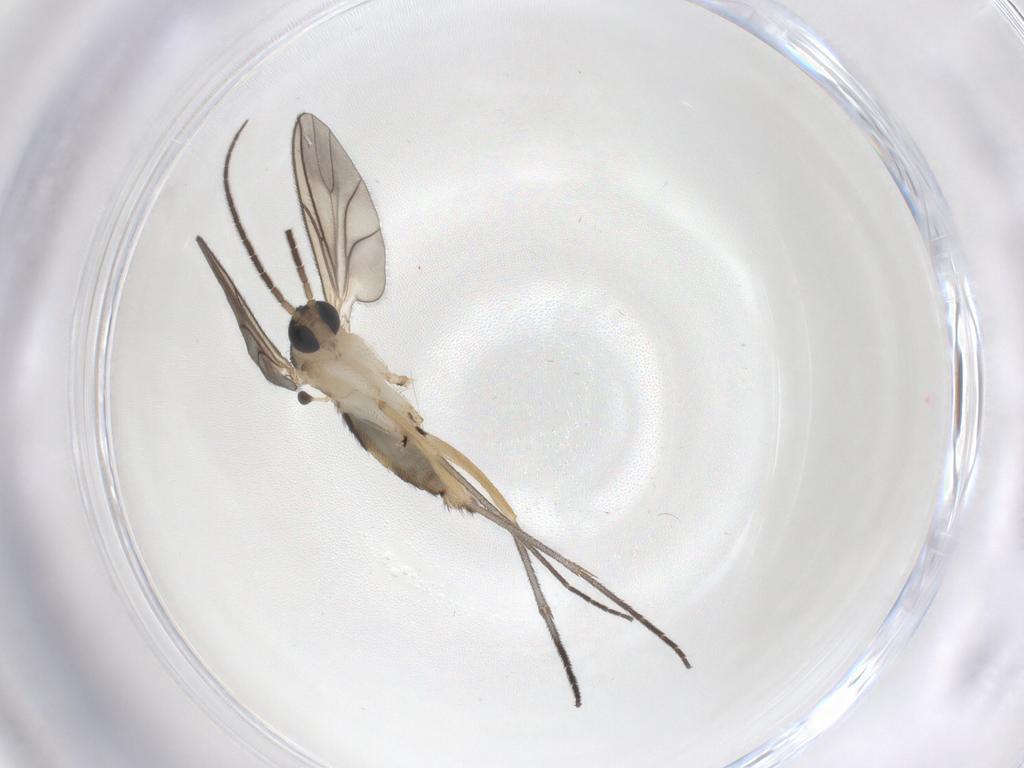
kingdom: Animalia
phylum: Arthropoda
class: Insecta
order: Diptera
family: Sciaridae
